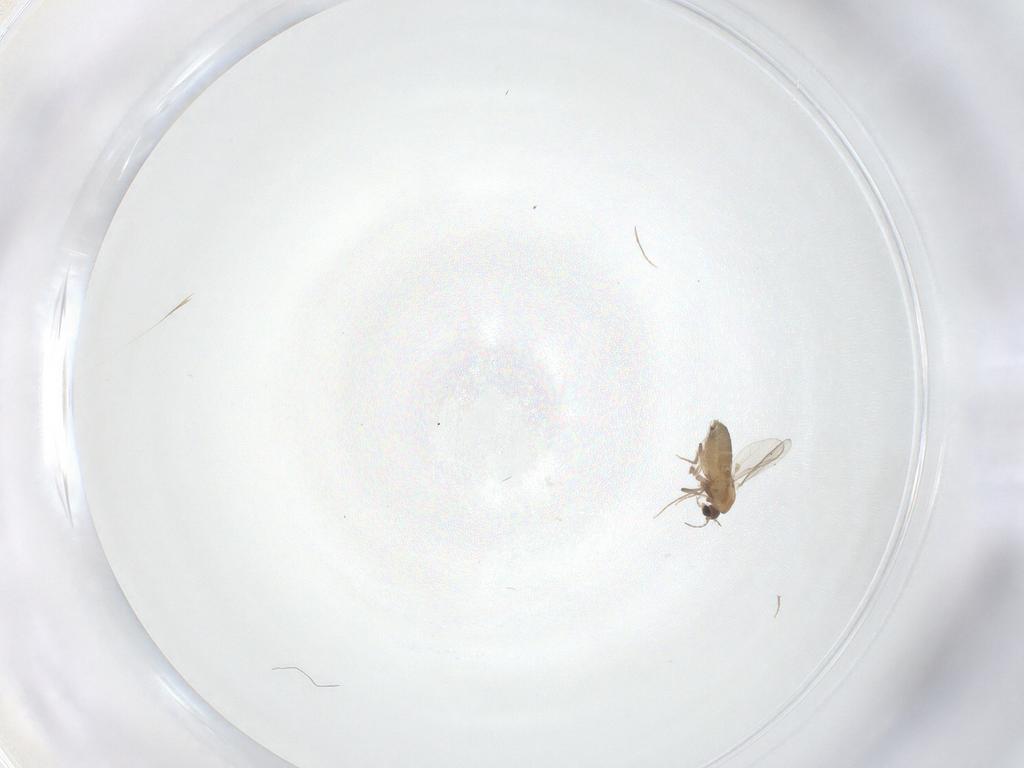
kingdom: Animalia
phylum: Arthropoda
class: Insecta
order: Diptera
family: Chironomidae
